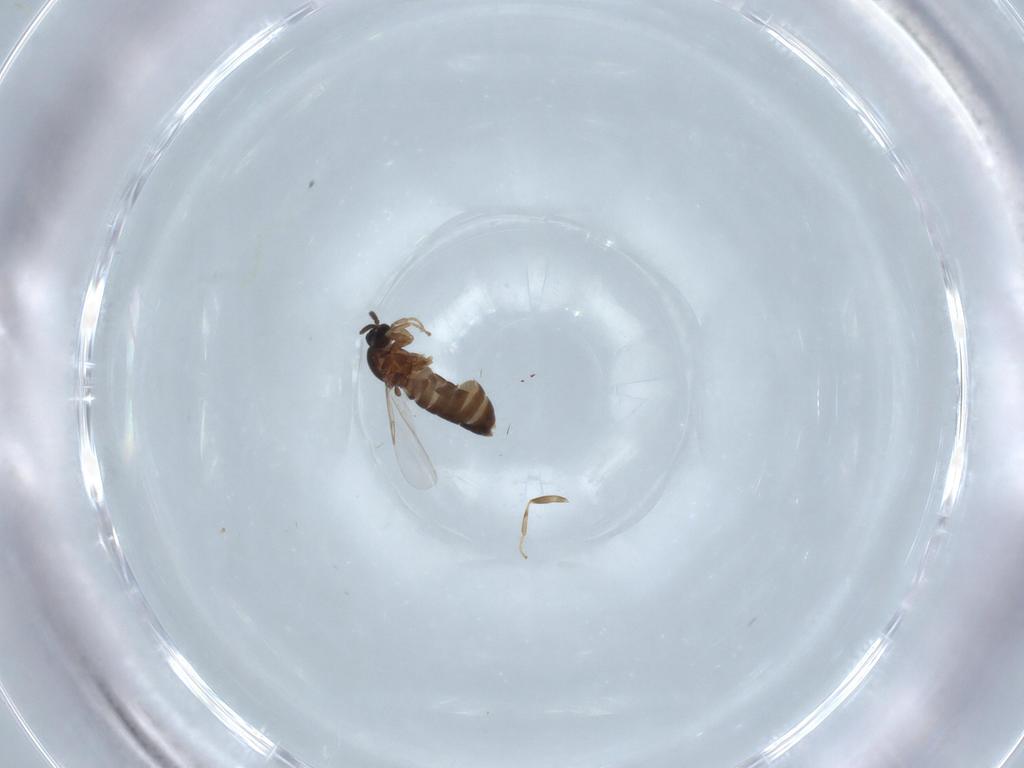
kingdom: Animalia
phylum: Arthropoda
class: Insecta
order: Diptera
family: Scatopsidae
